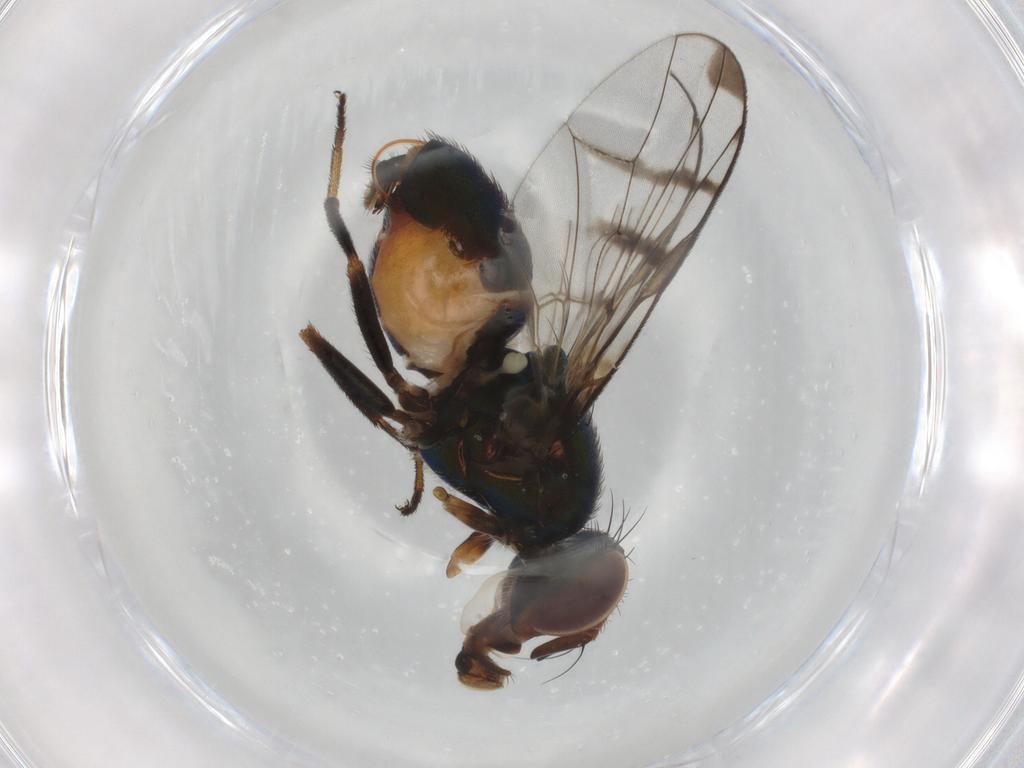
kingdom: Animalia
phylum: Arthropoda
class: Insecta
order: Diptera
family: Platystomatidae
